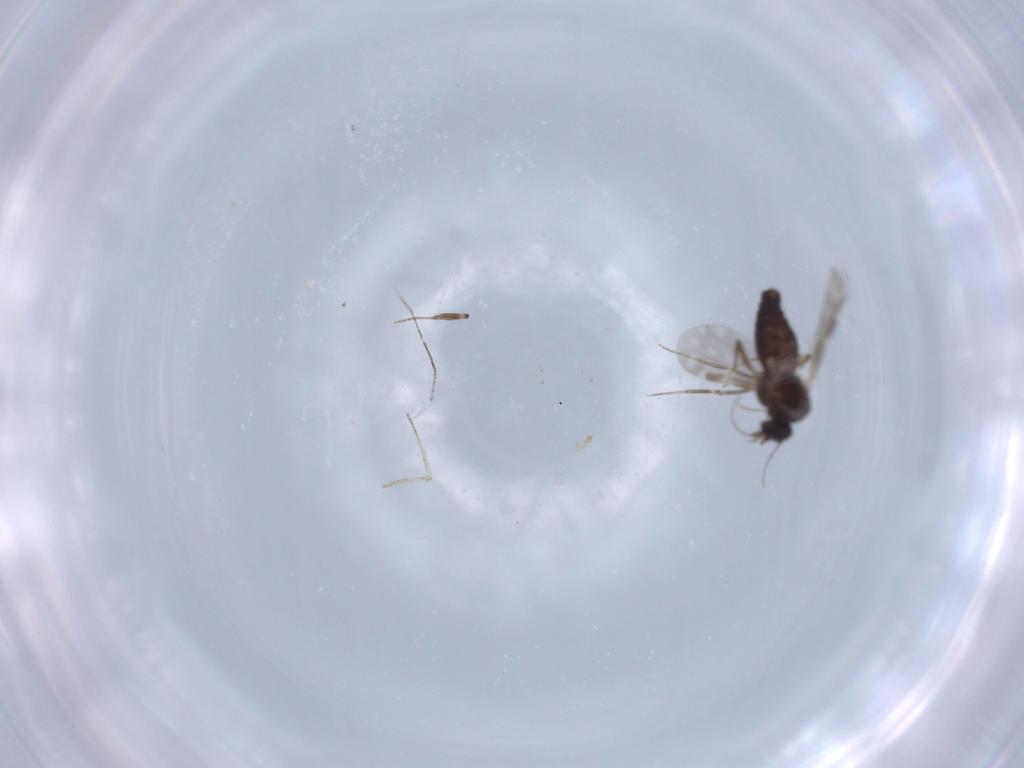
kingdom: Animalia
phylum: Arthropoda
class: Insecta
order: Diptera
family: Ceratopogonidae
